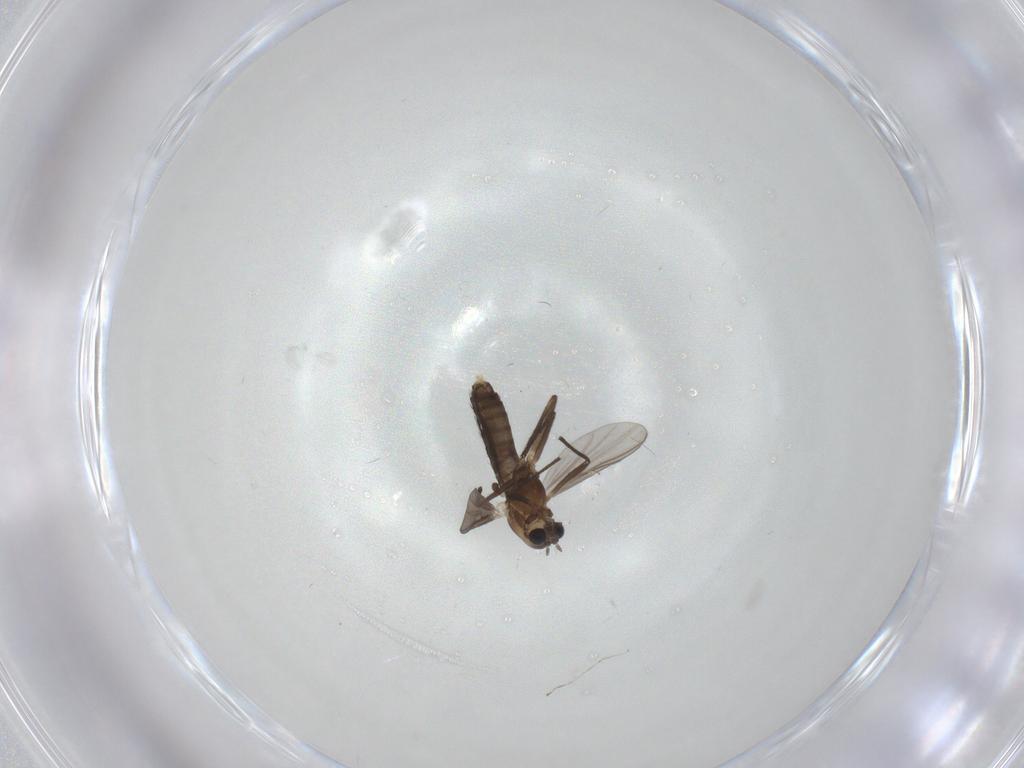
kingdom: Animalia
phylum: Arthropoda
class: Insecta
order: Diptera
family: Chironomidae
